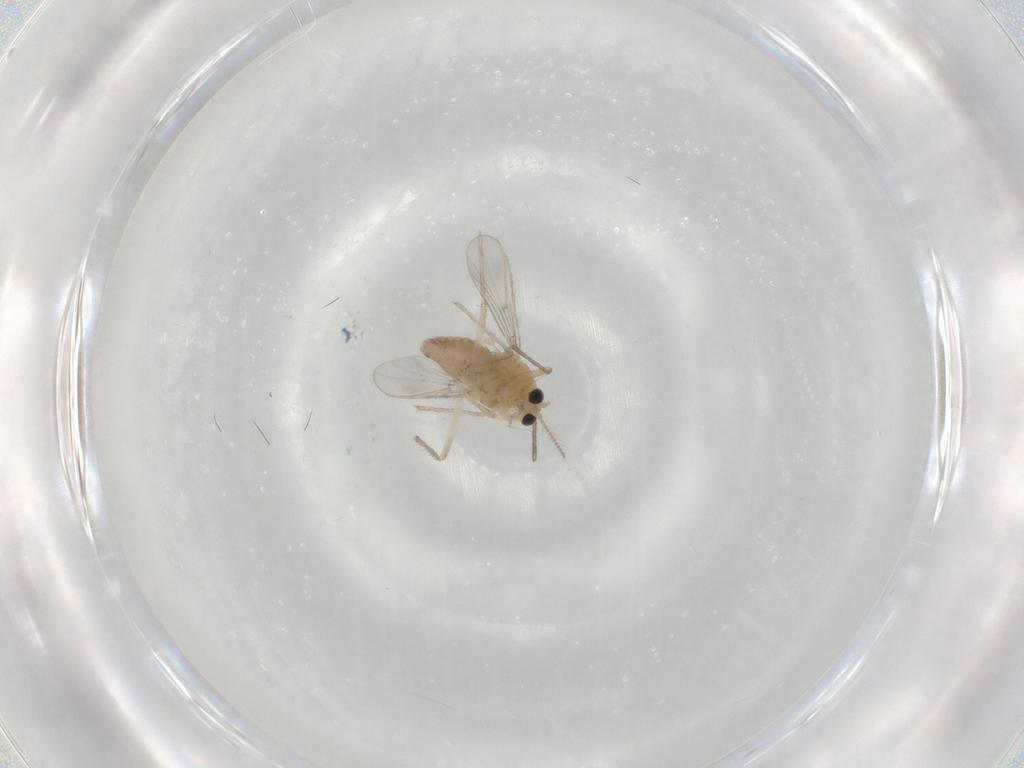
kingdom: Animalia
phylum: Arthropoda
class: Insecta
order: Diptera
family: Chironomidae
